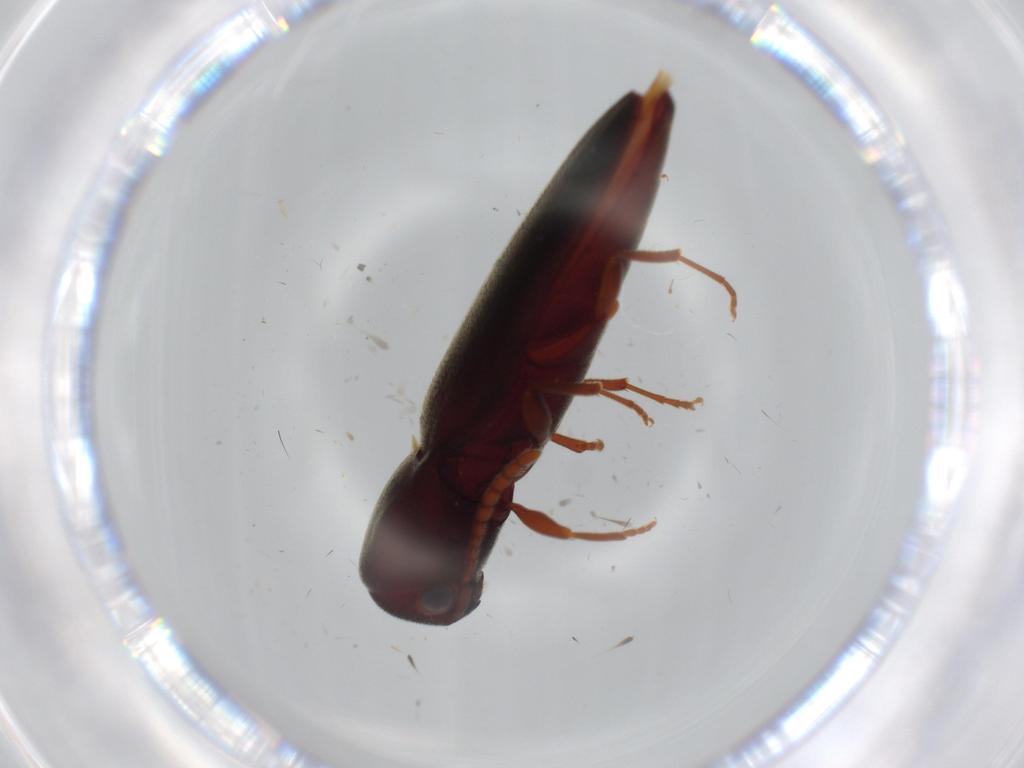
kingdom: Animalia
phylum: Arthropoda
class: Insecta
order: Coleoptera
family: Eucnemidae
